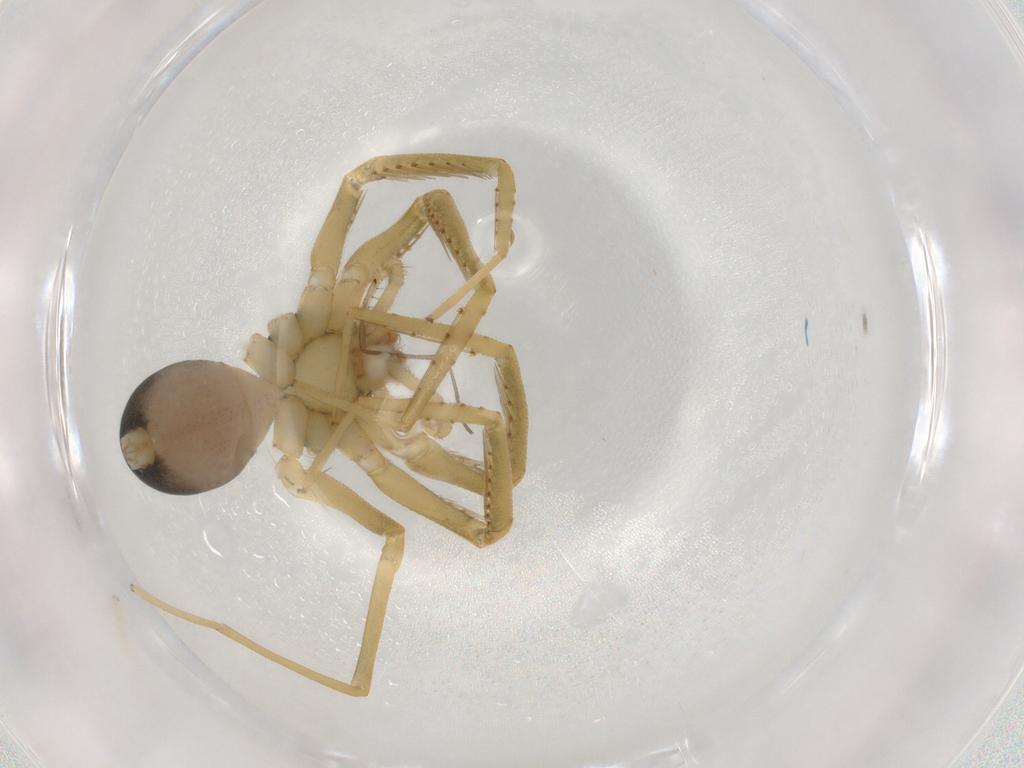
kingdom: Animalia
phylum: Arthropoda
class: Arachnida
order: Araneae
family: Phrurolithidae
